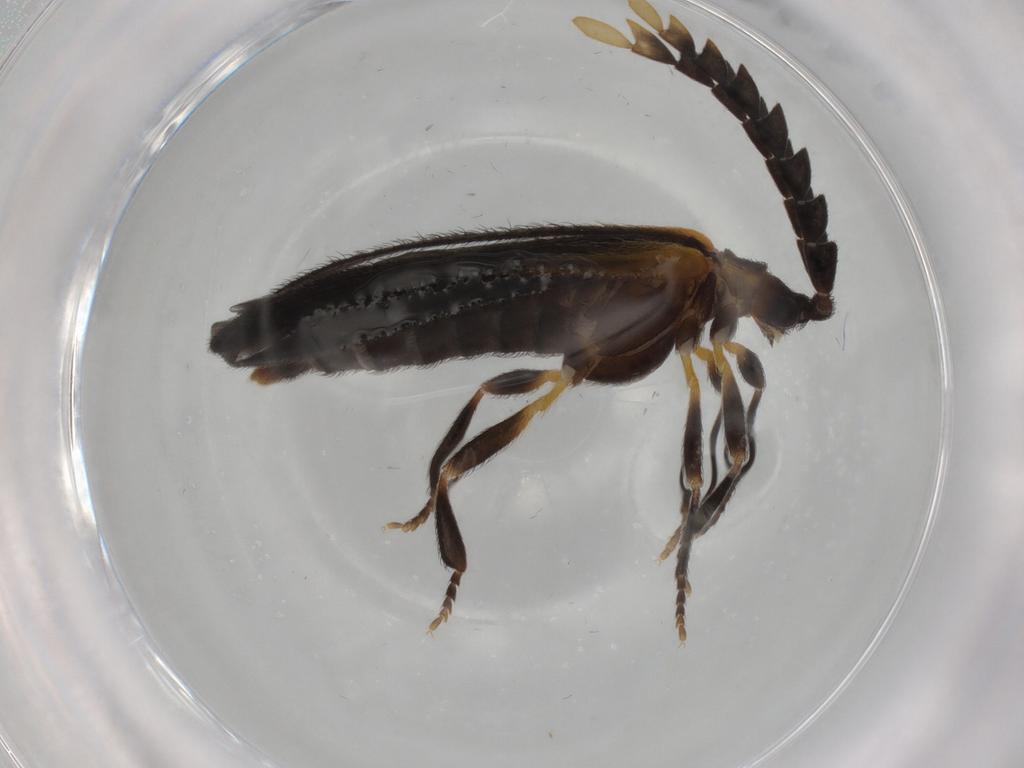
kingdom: Animalia
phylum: Arthropoda
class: Insecta
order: Coleoptera
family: Lycidae
